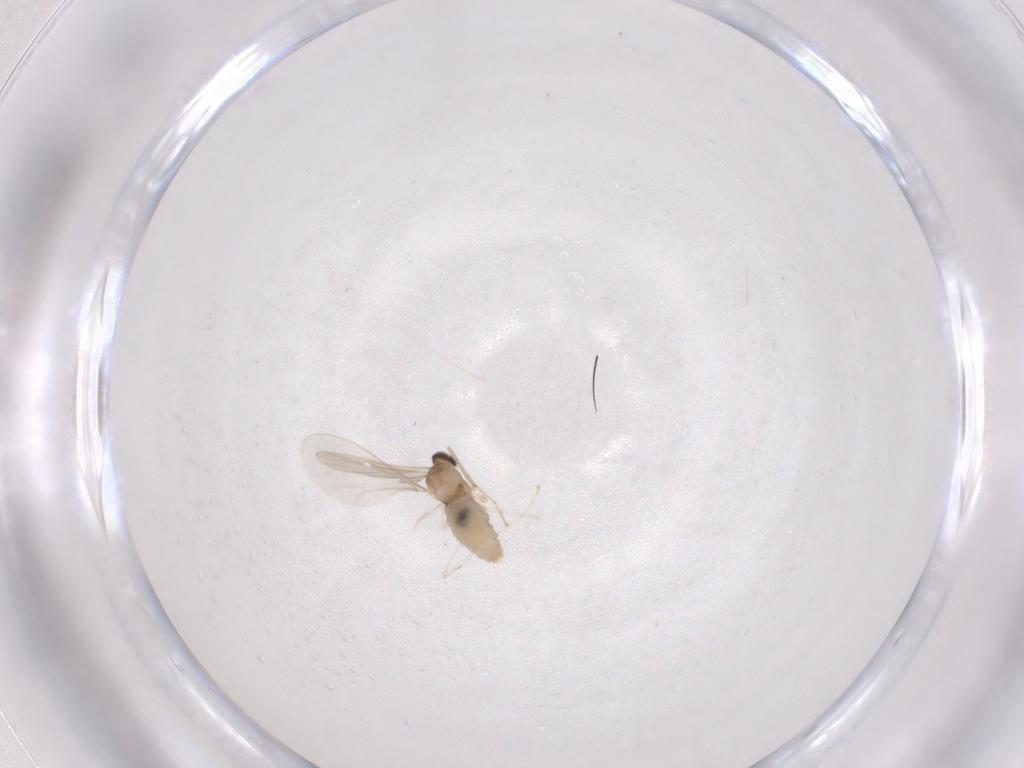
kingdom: Animalia
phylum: Arthropoda
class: Insecta
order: Diptera
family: Cecidomyiidae
